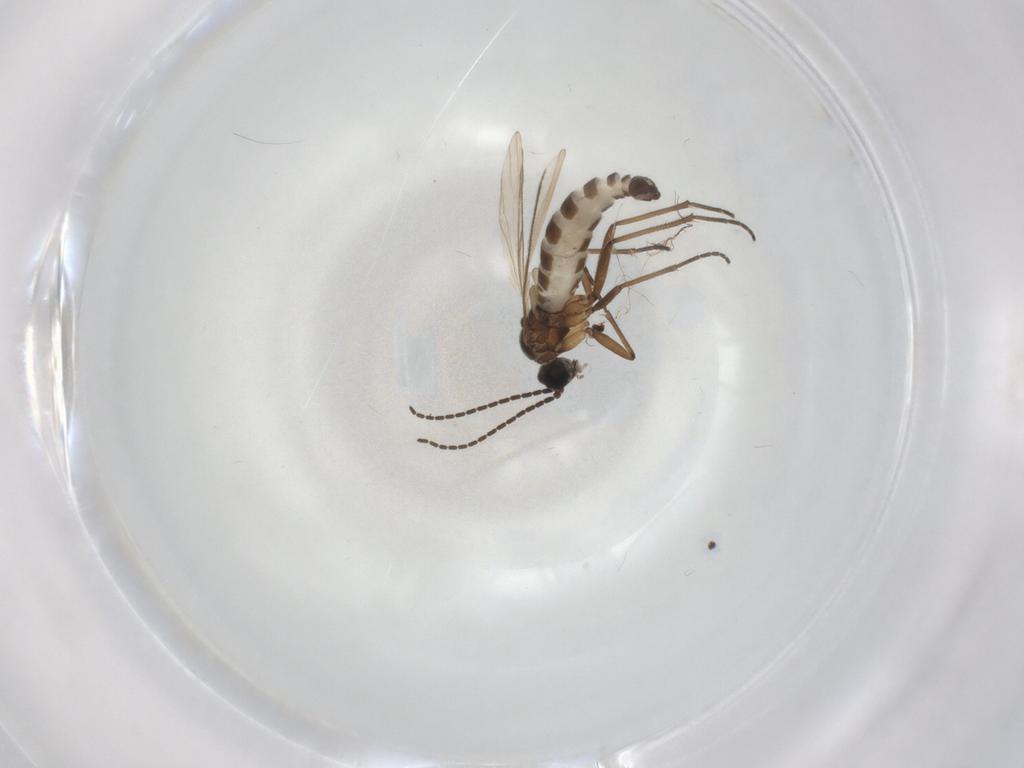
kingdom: Animalia
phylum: Arthropoda
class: Insecta
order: Diptera
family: Sciaridae
